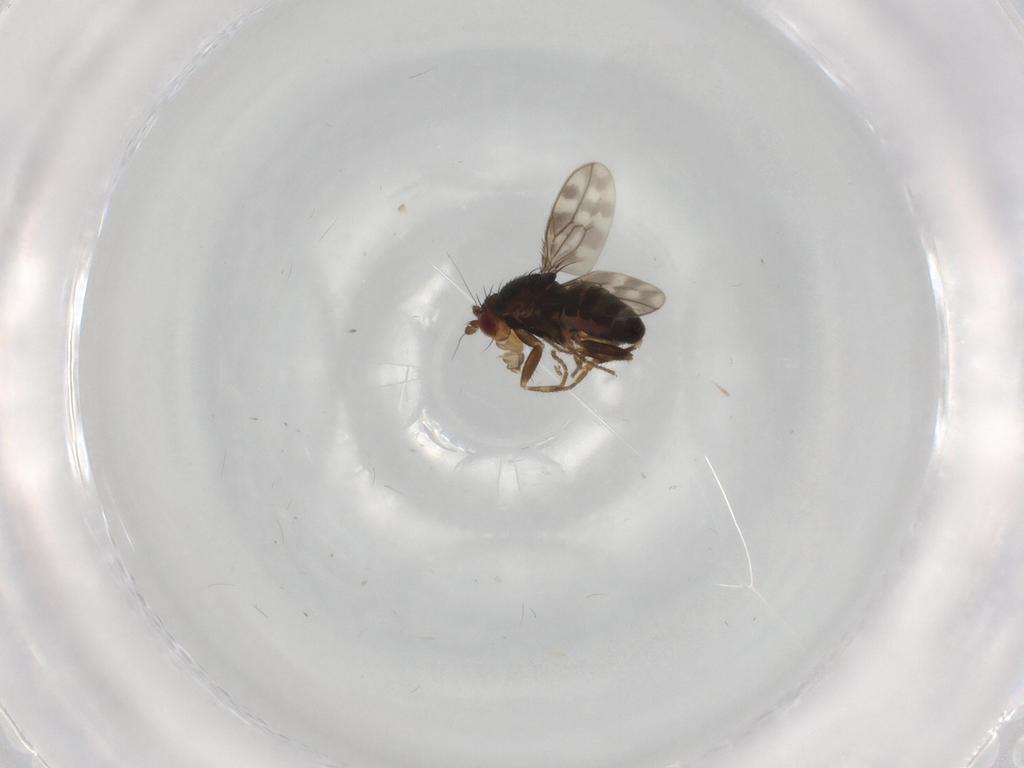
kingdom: Animalia
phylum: Arthropoda
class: Insecta
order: Diptera
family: Sphaeroceridae
